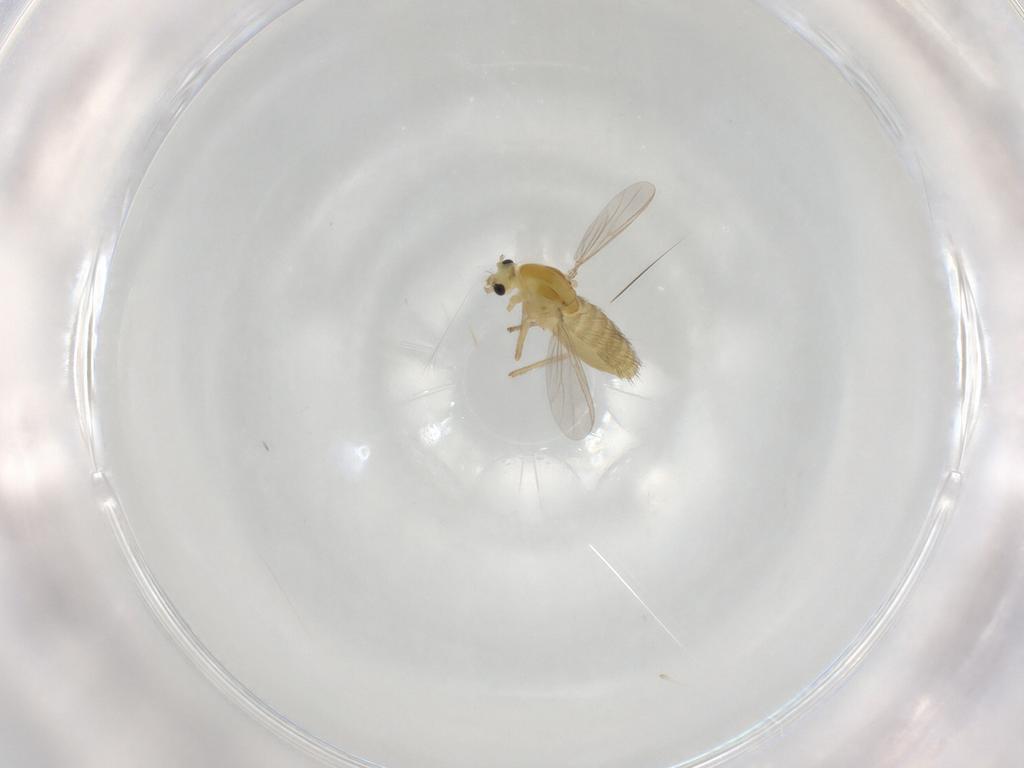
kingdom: Animalia
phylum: Arthropoda
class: Insecta
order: Diptera
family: Chironomidae
